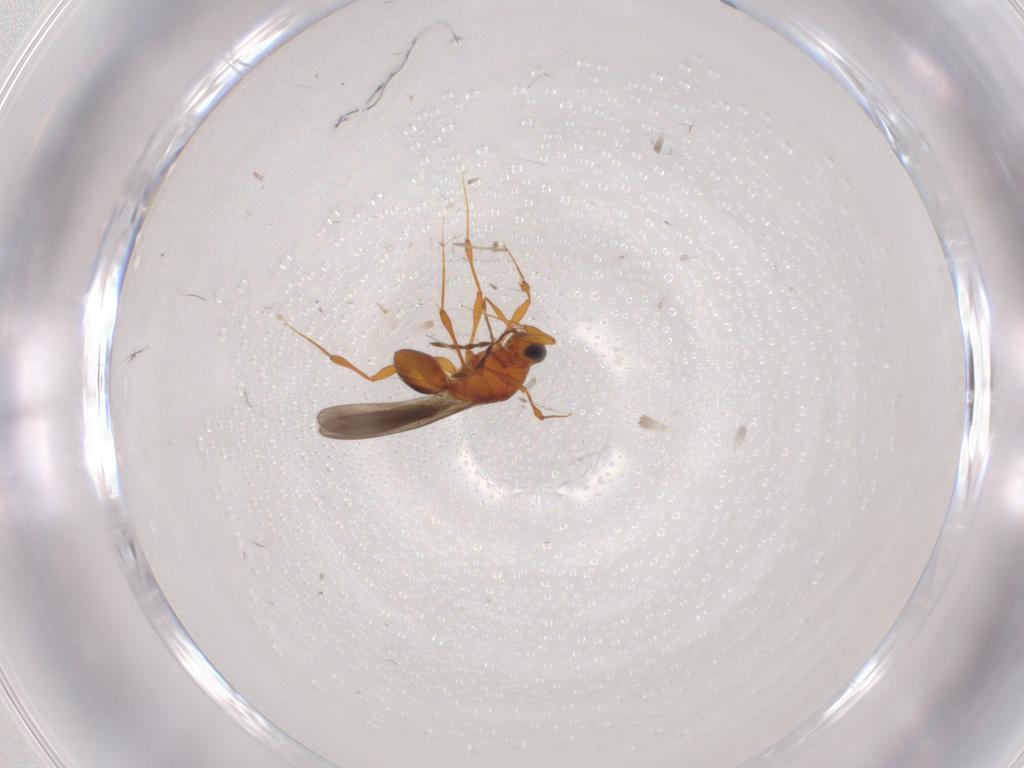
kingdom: Animalia
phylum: Arthropoda
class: Insecta
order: Hymenoptera
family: Platygastridae
